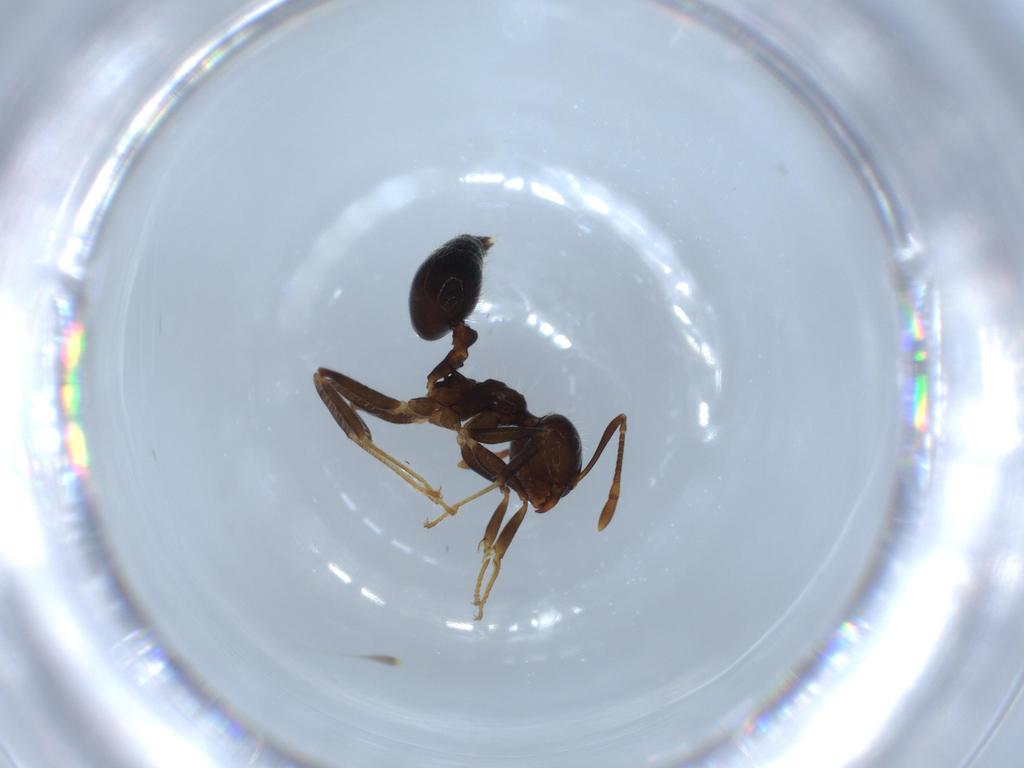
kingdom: Animalia
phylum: Arthropoda
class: Insecta
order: Hymenoptera
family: Formicidae
